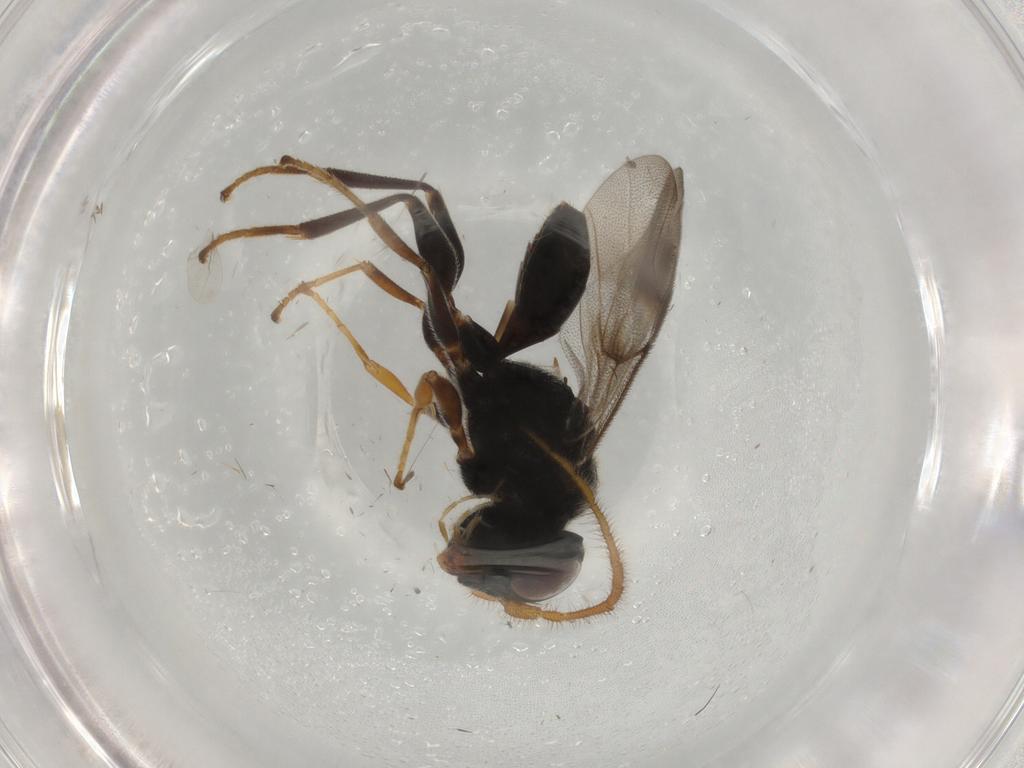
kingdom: Animalia
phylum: Arthropoda
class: Insecta
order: Hymenoptera
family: Dryinidae
